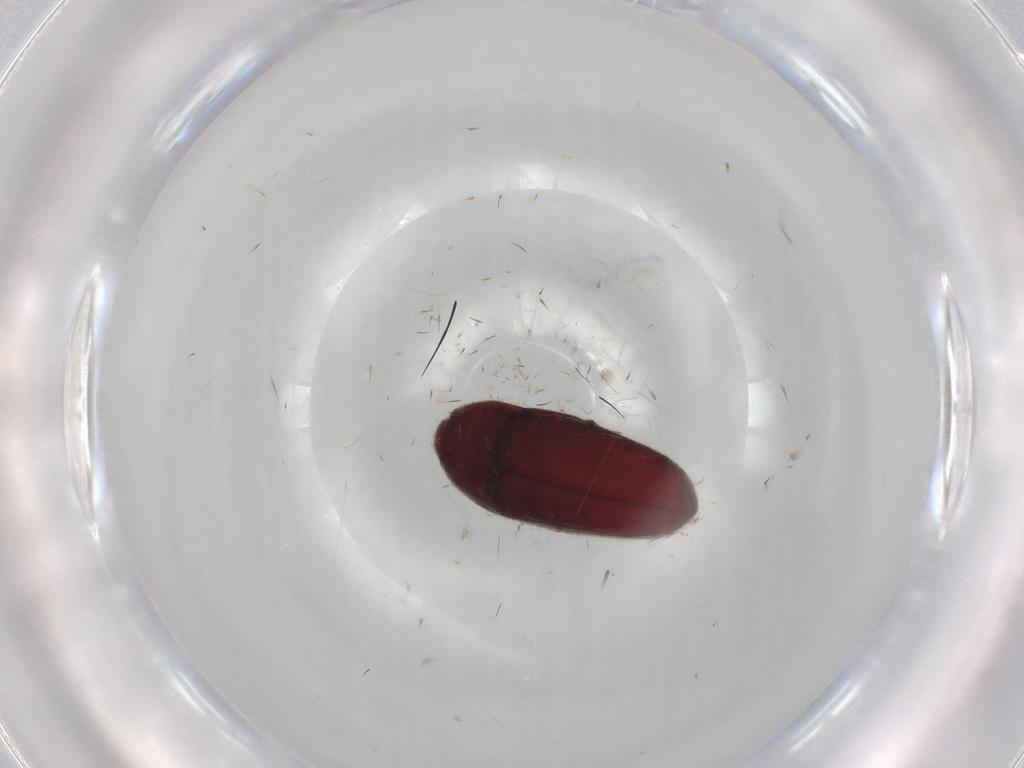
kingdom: Animalia
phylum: Arthropoda
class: Insecta
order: Coleoptera
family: Throscidae
